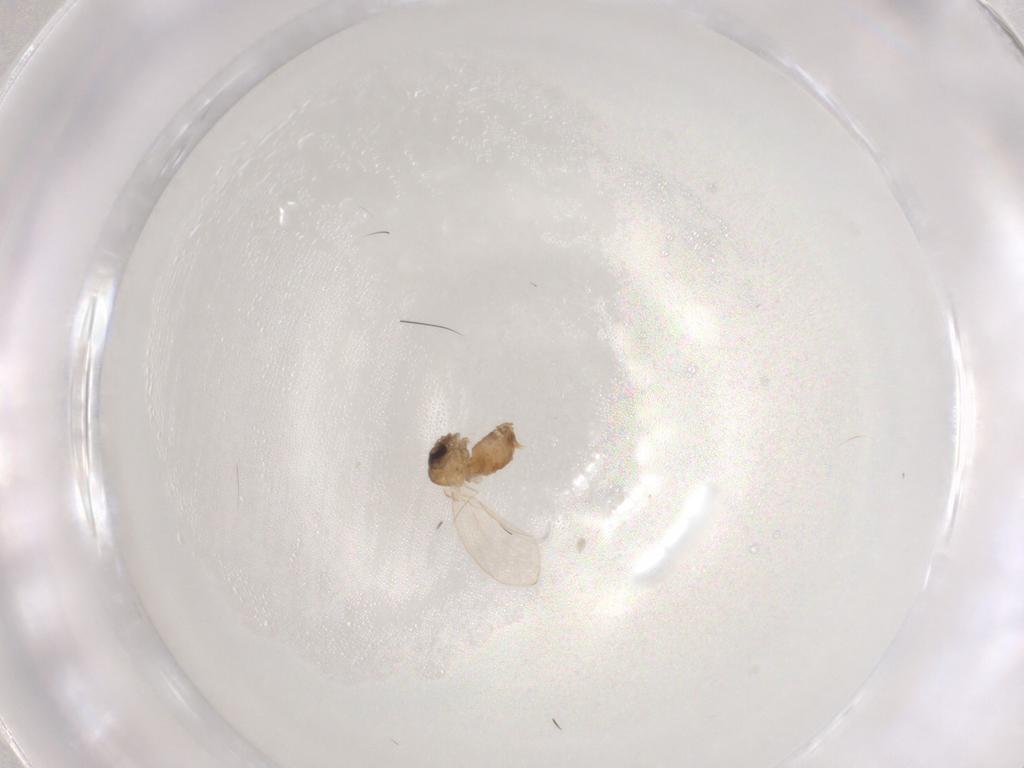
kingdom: Animalia
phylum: Arthropoda
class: Insecta
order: Diptera
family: Psychodidae
